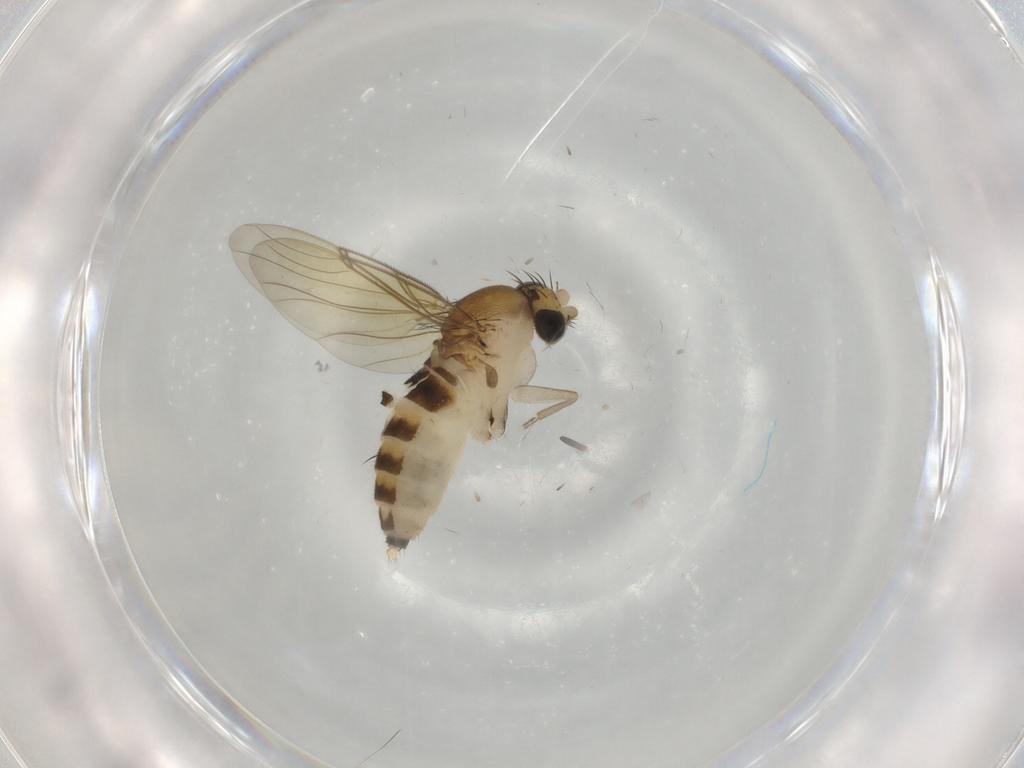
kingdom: Animalia
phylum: Arthropoda
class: Insecta
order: Diptera
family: Phoridae
